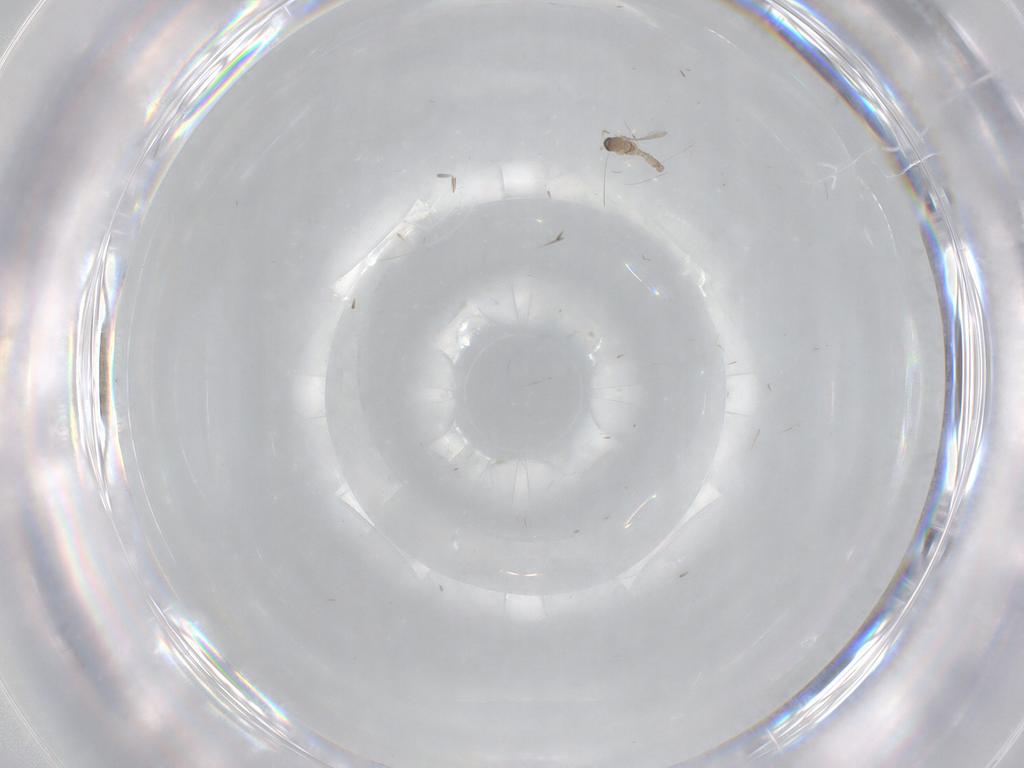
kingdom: Animalia
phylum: Arthropoda
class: Insecta
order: Diptera
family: Cecidomyiidae
